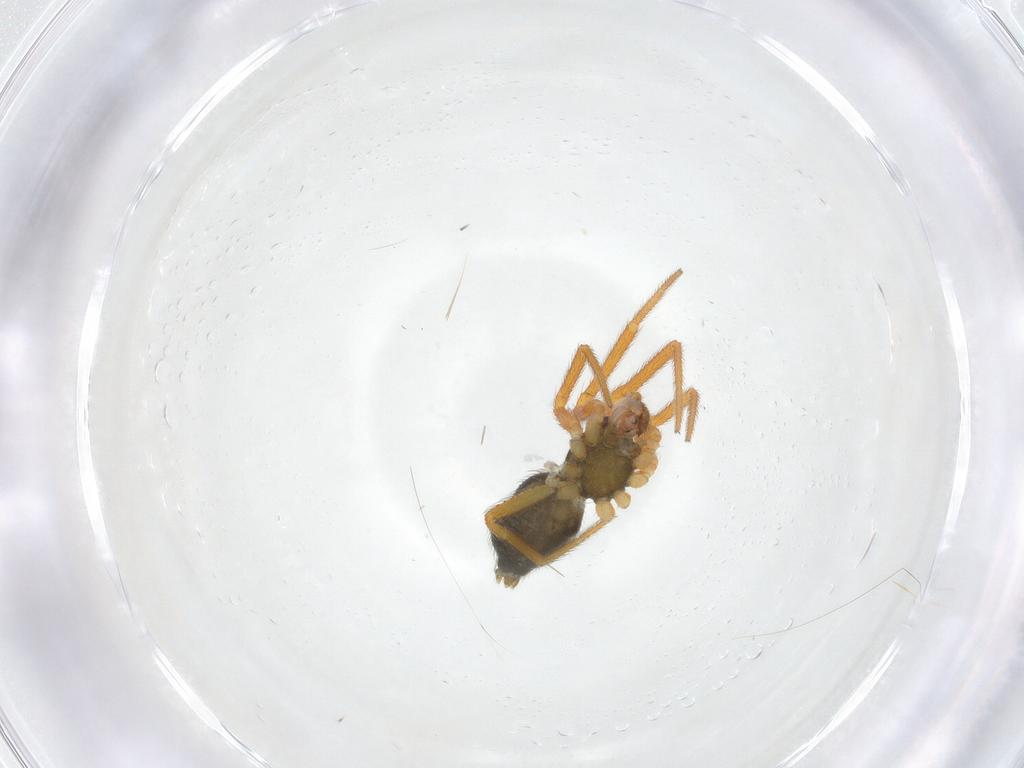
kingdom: Animalia
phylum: Arthropoda
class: Arachnida
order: Araneae
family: Theridiidae
